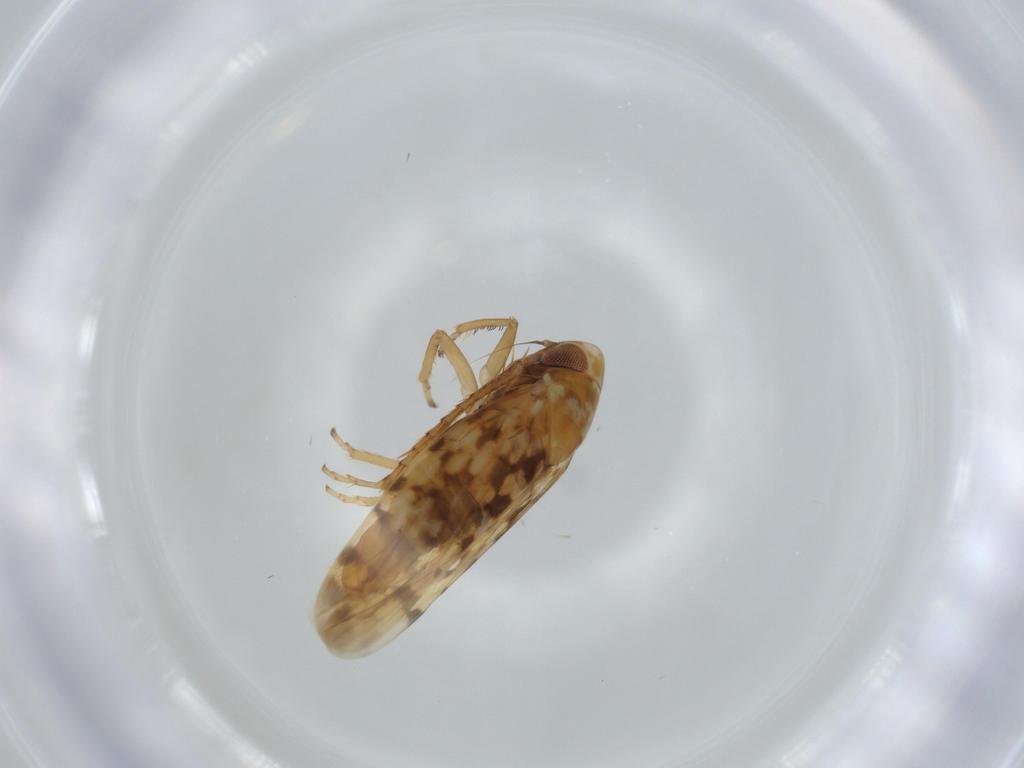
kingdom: Animalia
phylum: Arthropoda
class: Insecta
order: Hemiptera
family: Cicadellidae
